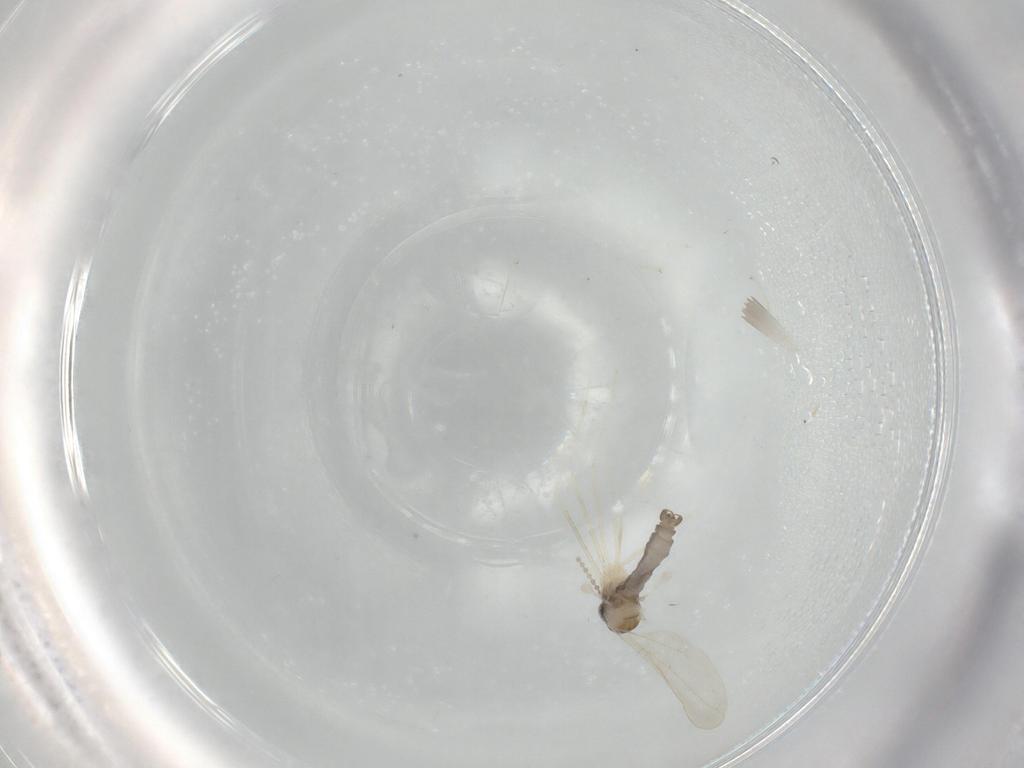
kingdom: Animalia
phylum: Arthropoda
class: Insecta
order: Diptera
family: Cecidomyiidae
